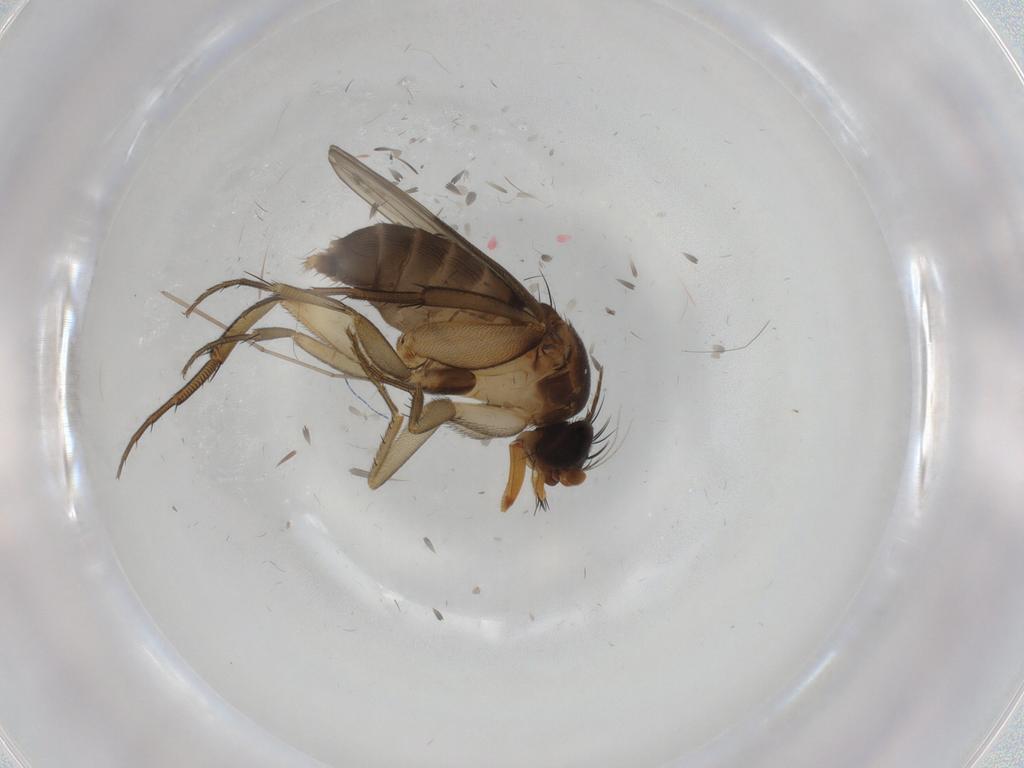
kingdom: Animalia
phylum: Arthropoda
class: Insecta
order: Diptera
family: Phoridae
